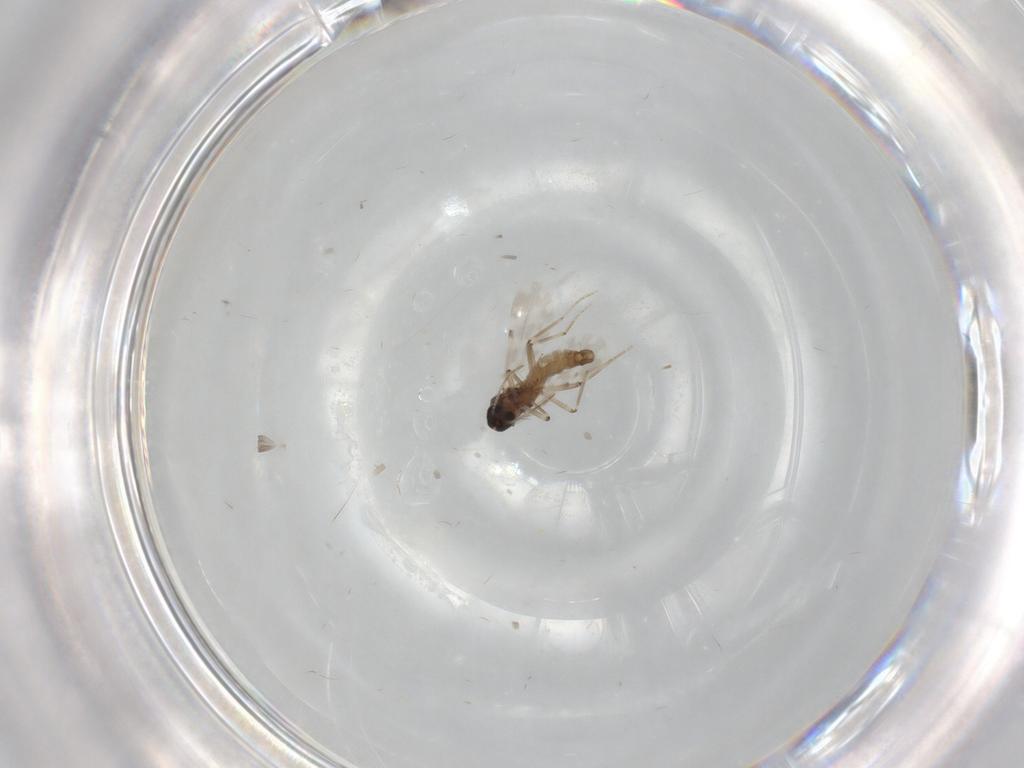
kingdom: Animalia
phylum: Arthropoda
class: Insecta
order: Diptera
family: Ceratopogonidae
